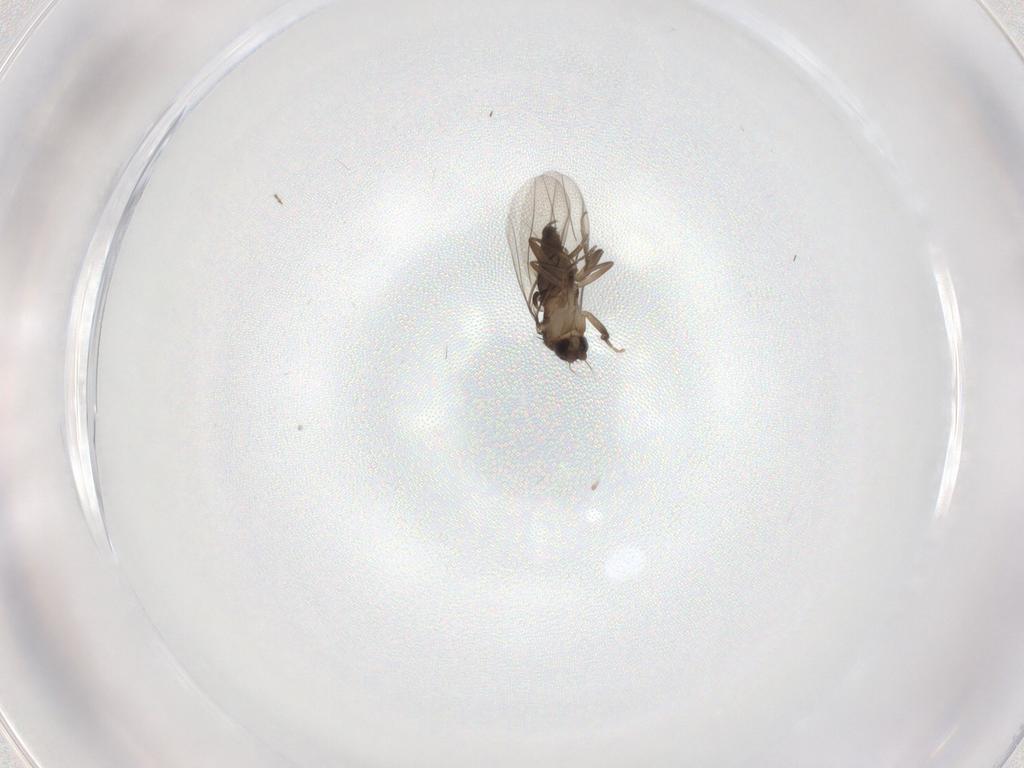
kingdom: Animalia
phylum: Arthropoda
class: Insecta
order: Diptera
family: Phoridae
